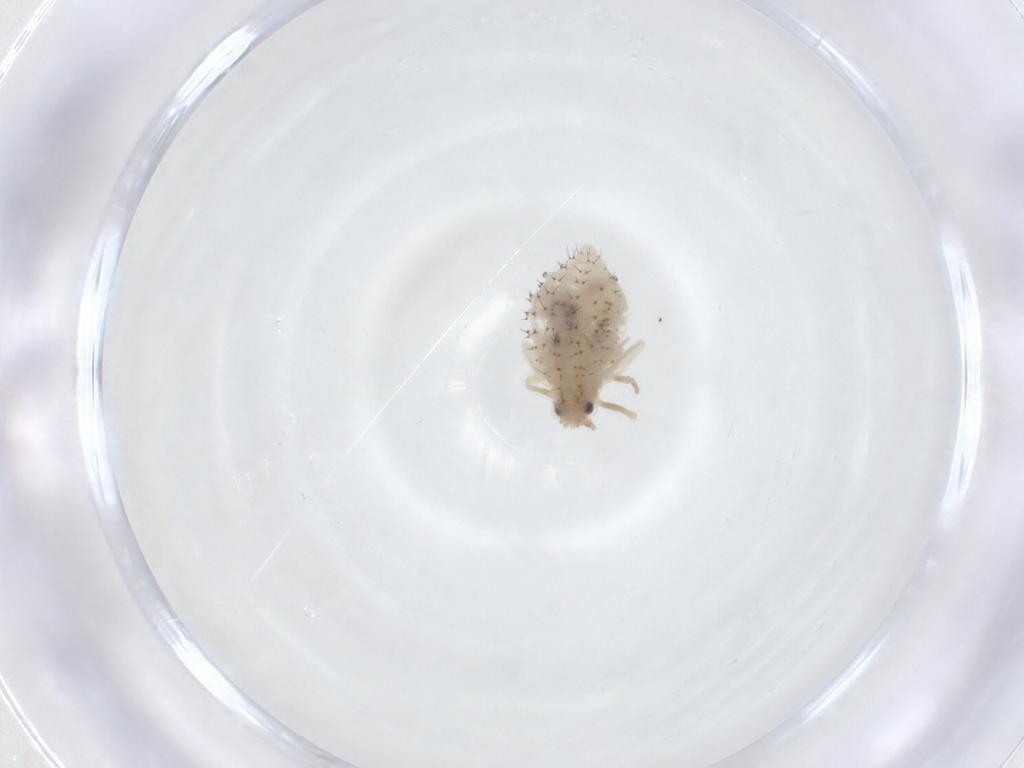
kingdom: Animalia
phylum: Arthropoda
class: Insecta
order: Hemiptera
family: Aphididae
